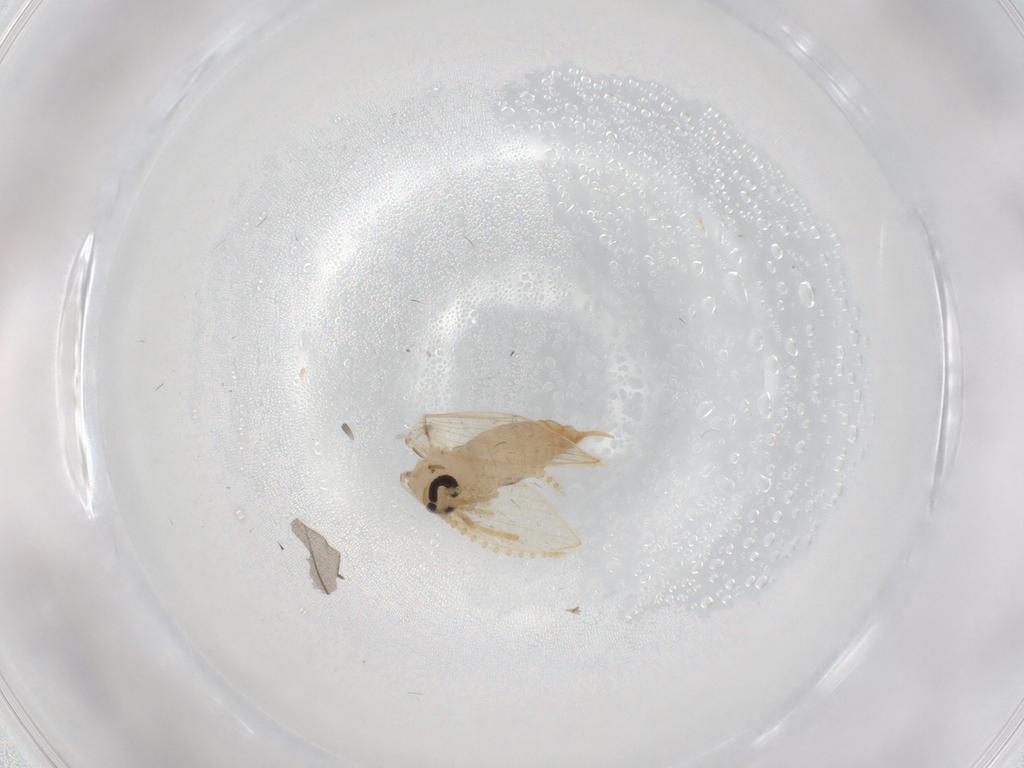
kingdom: Animalia
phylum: Arthropoda
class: Insecta
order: Diptera
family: Psychodidae
